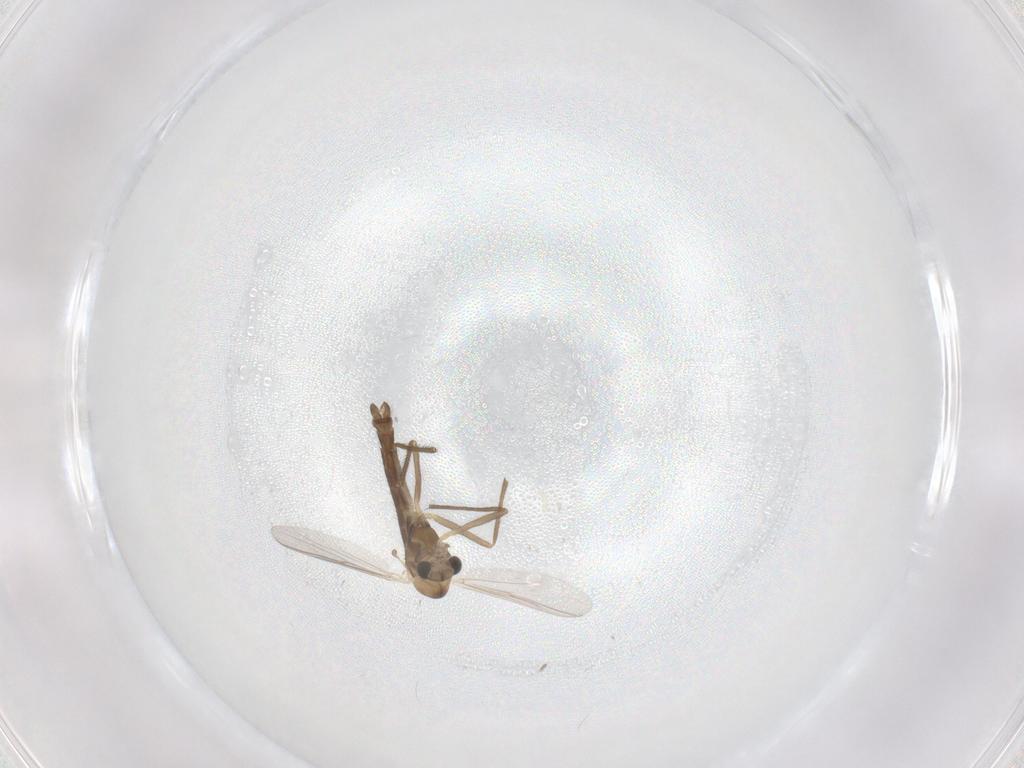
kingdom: Animalia
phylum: Arthropoda
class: Insecta
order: Diptera
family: Chironomidae
